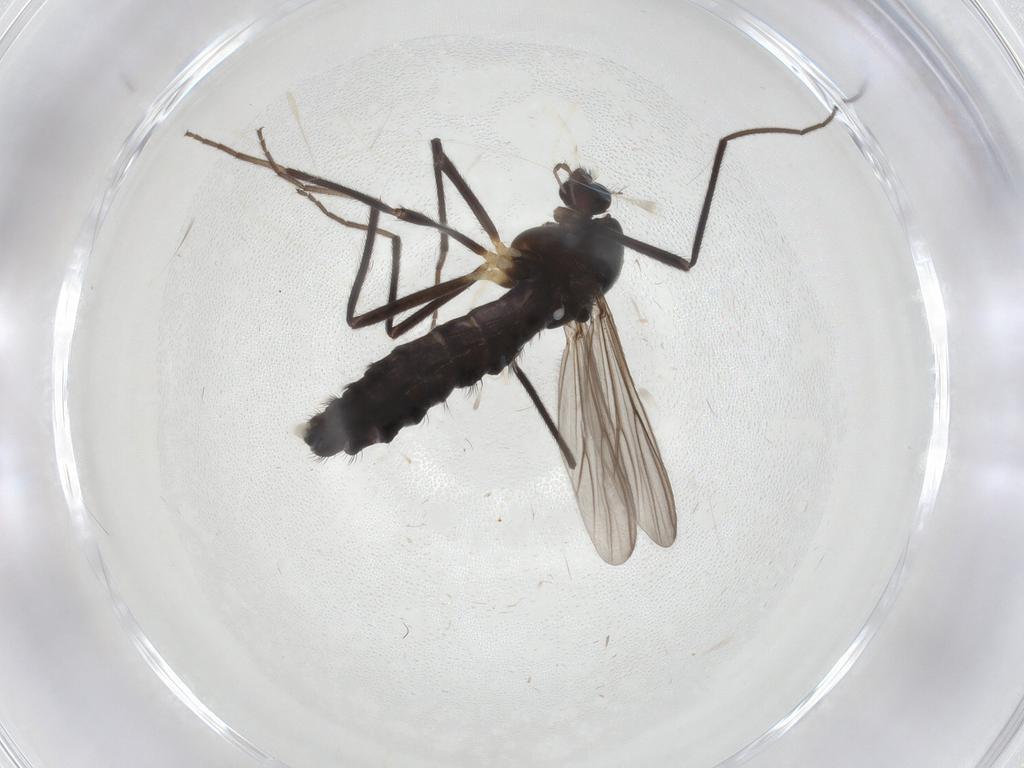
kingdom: Animalia
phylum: Arthropoda
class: Insecta
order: Diptera
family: Chironomidae
